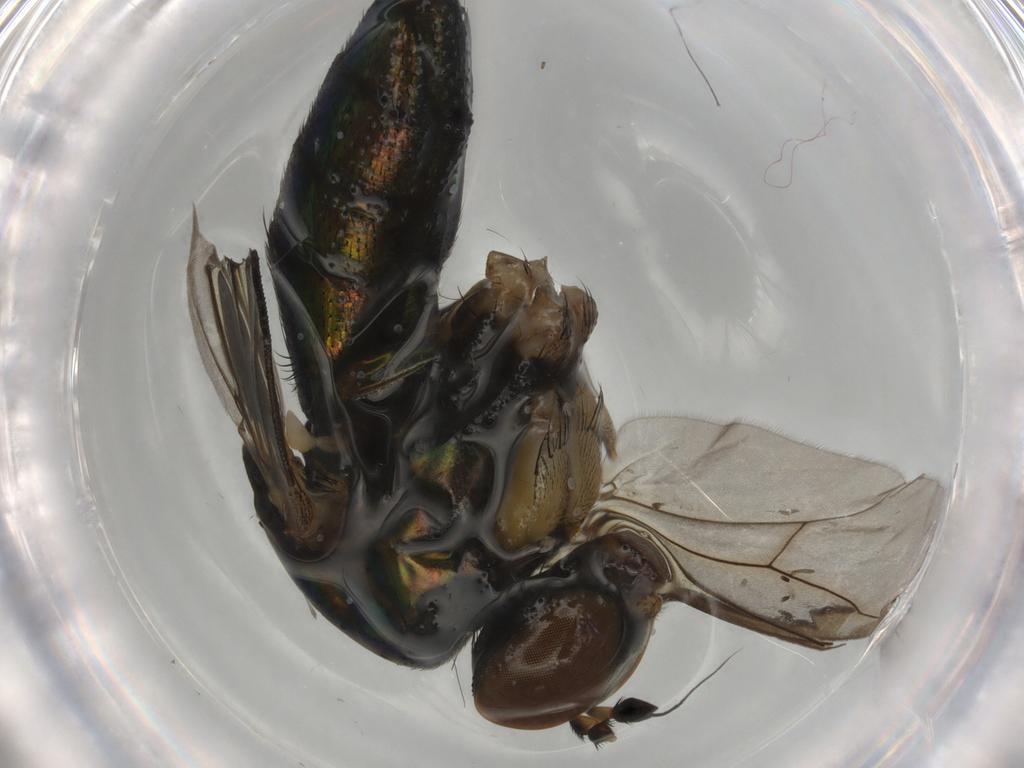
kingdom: Animalia
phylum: Arthropoda
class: Insecta
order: Diptera
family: Dolichopodidae
